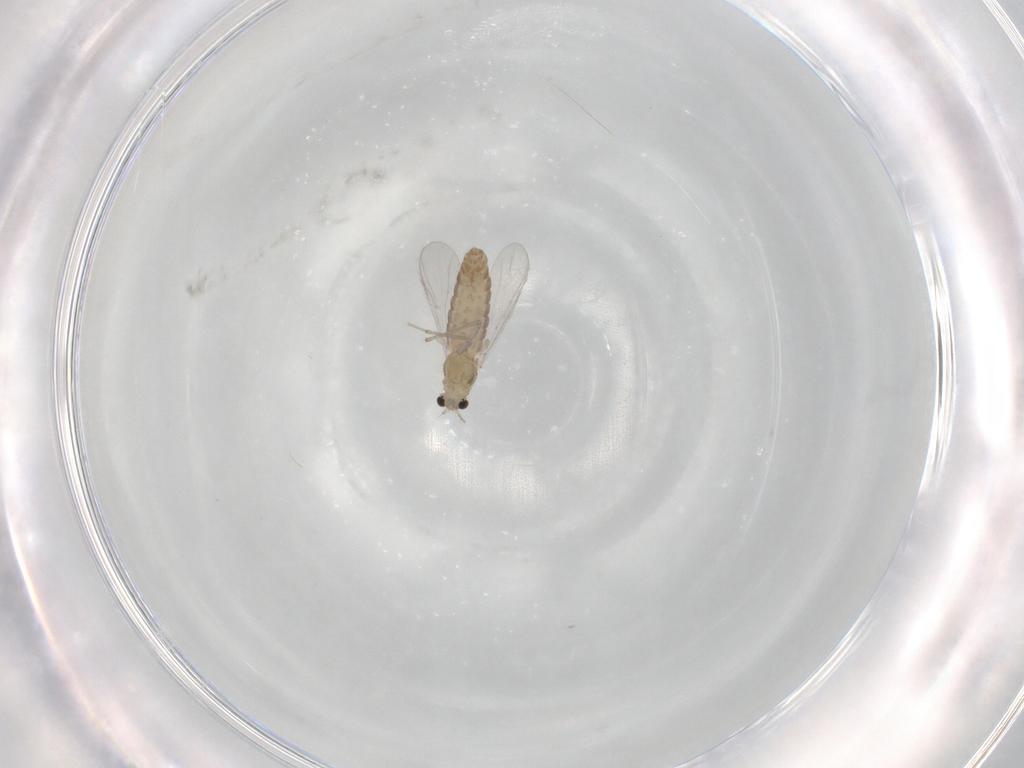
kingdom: Animalia
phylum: Arthropoda
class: Insecta
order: Diptera
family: Chironomidae
